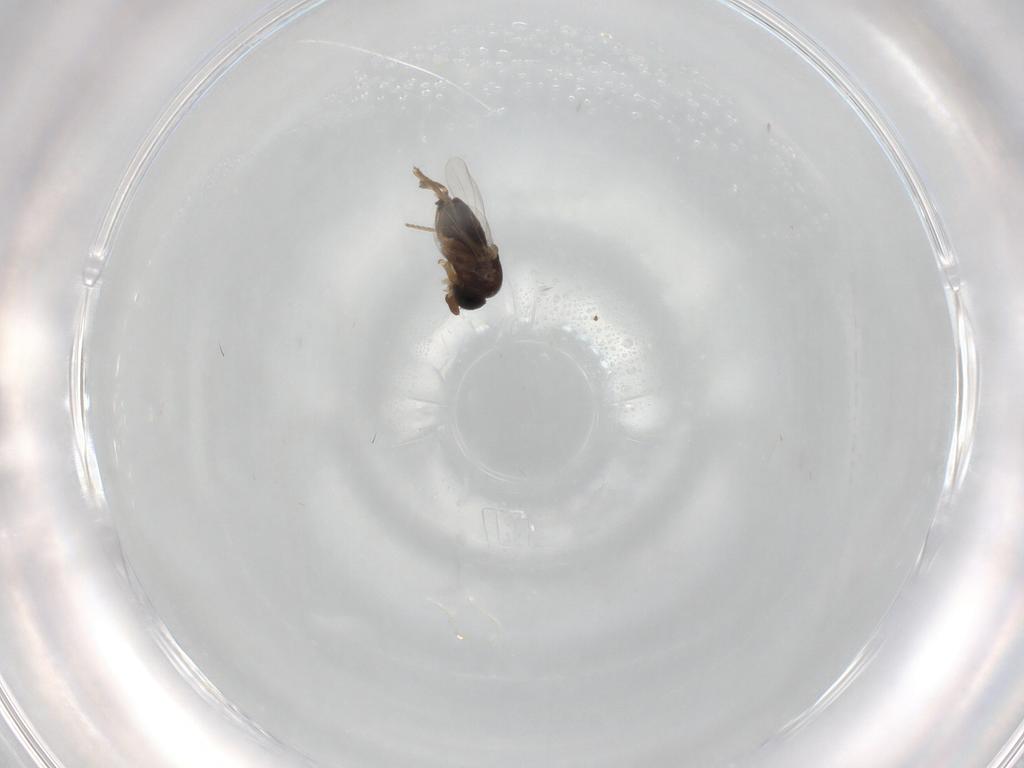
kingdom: Animalia
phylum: Arthropoda
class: Insecta
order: Diptera
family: Phoridae
